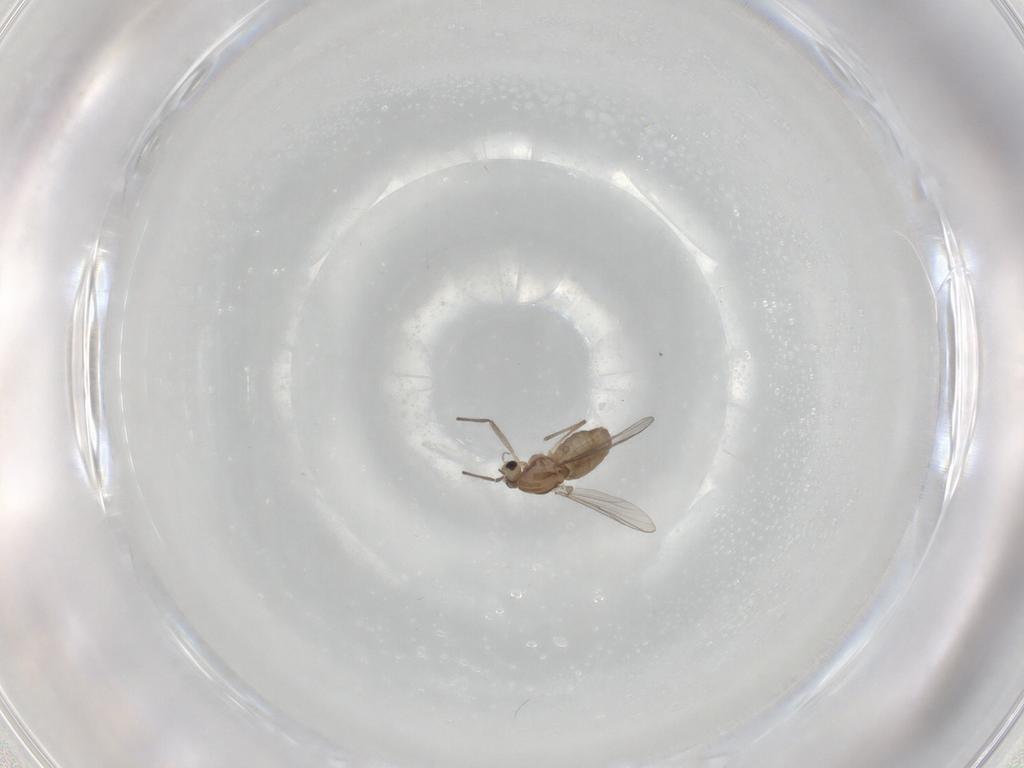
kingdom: Animalia
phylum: Arthropoda
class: Insecta
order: Diptera
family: Chironomidae
